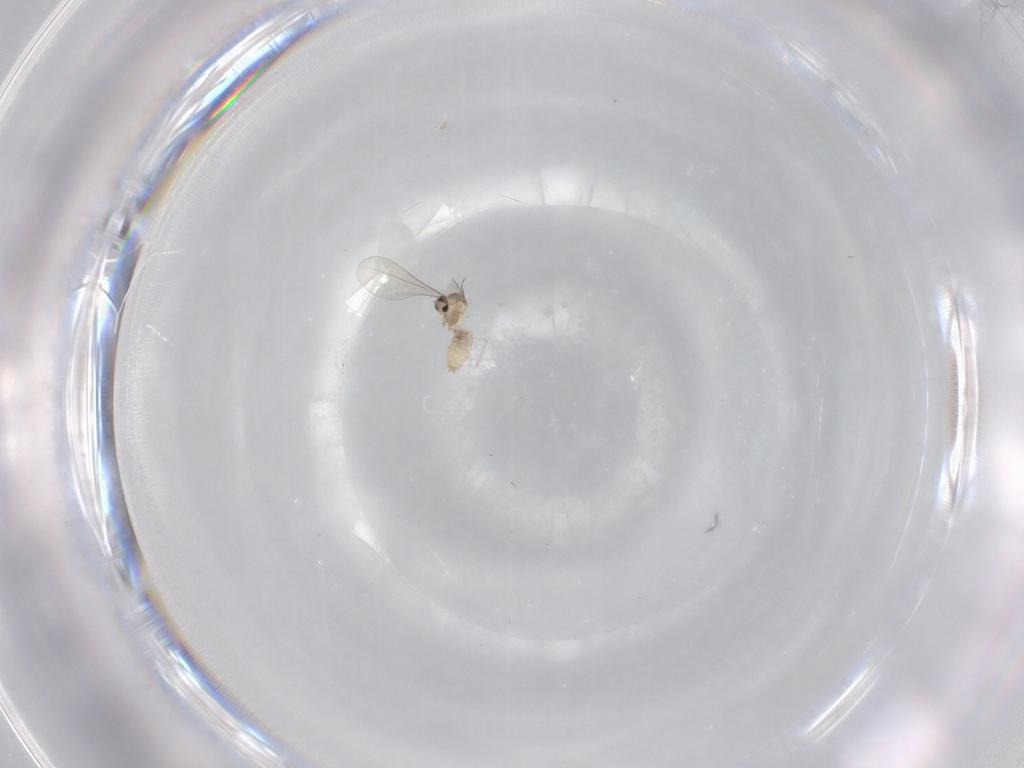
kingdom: Animalia
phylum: Arthropoda
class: Insecta
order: Diptera
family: Cecidomyiidae
